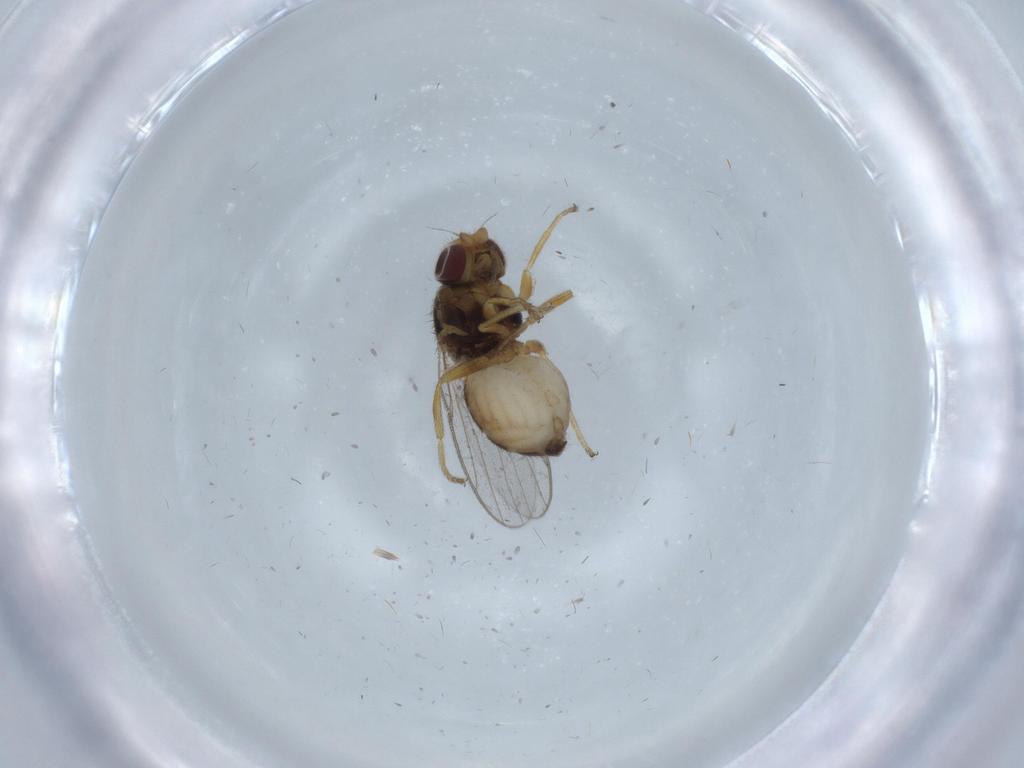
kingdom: Animalia
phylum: Arthropoda
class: Insecta
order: Diptera
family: Chloropidae
